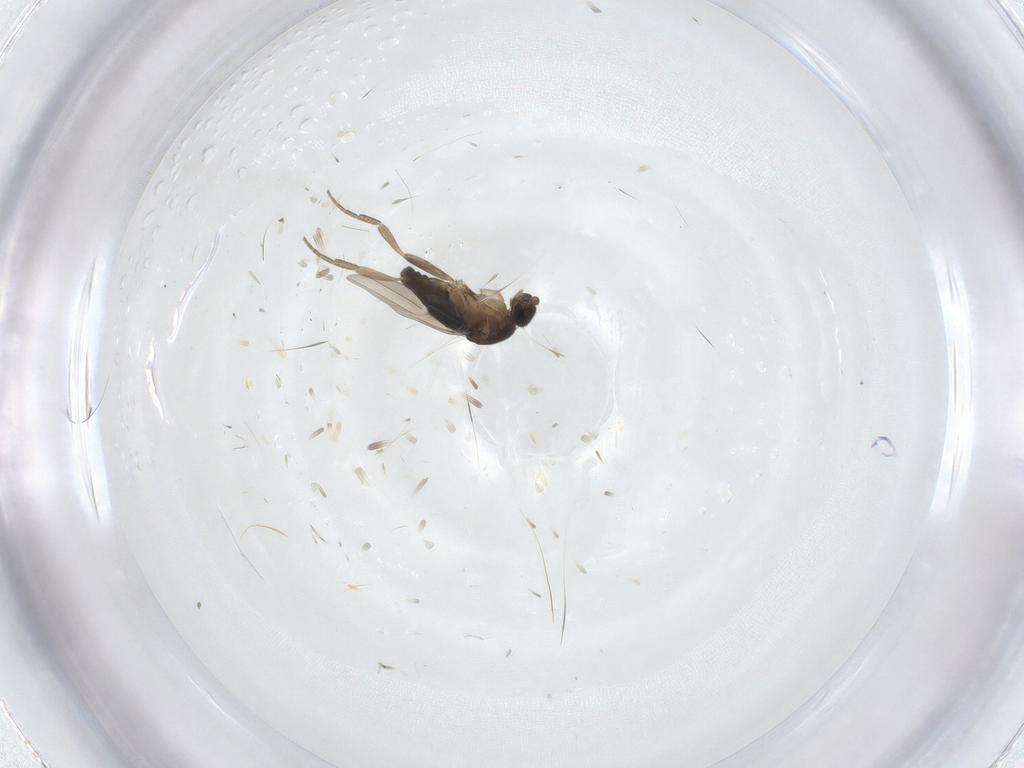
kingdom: Animalia
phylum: Arthropoda
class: Insecta
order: Diptera
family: Phoridae
